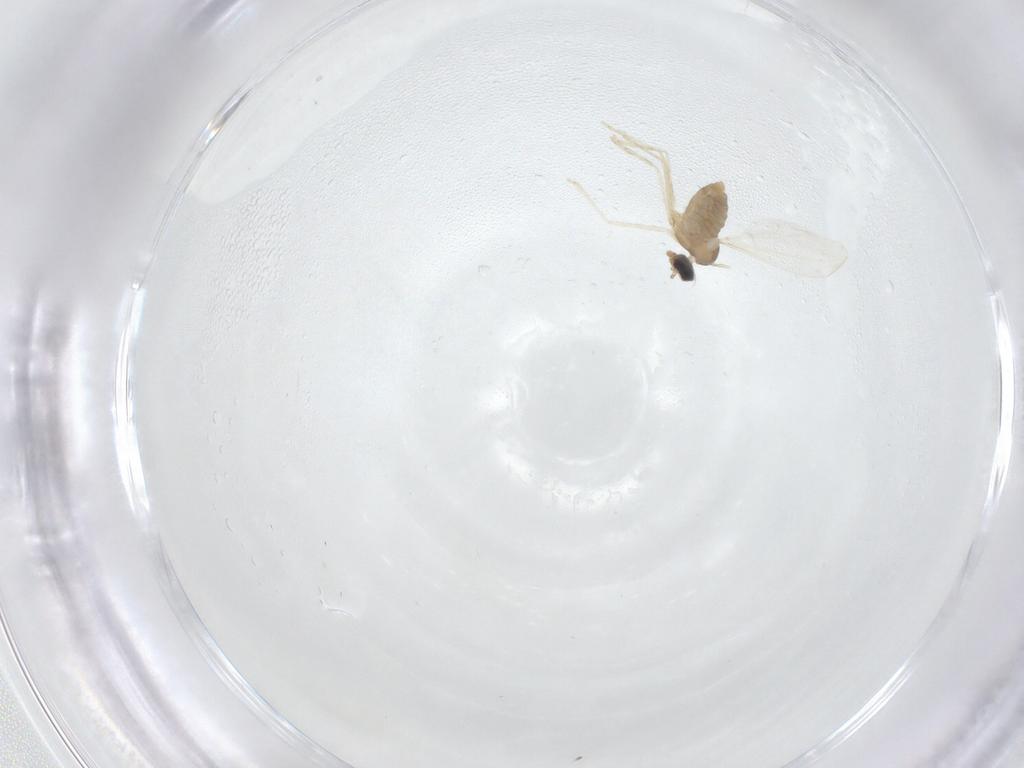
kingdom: Animalia
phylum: Arthropoda
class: Insecta
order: Diptera
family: Cecidomyiidae
